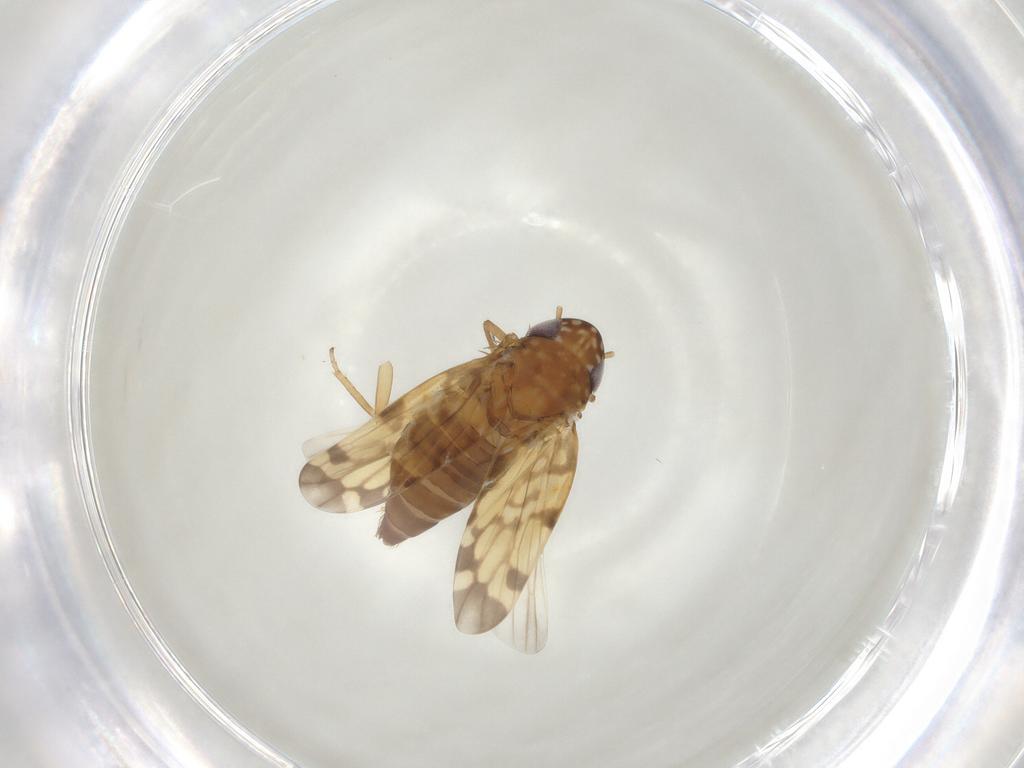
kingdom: Animalia
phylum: Arthropoda
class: Insecta
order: Hemiptera
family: Cicadellidae
